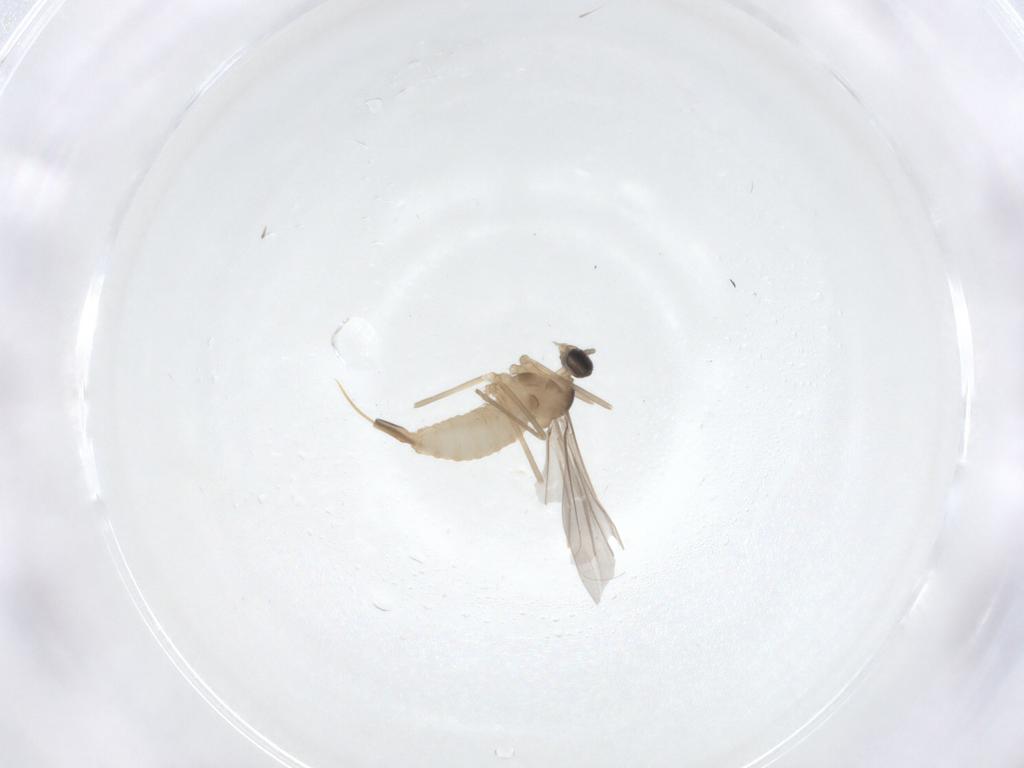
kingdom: Animalia
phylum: Arthropoda
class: Insecta
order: Diptera
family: Cecidomyiidae
